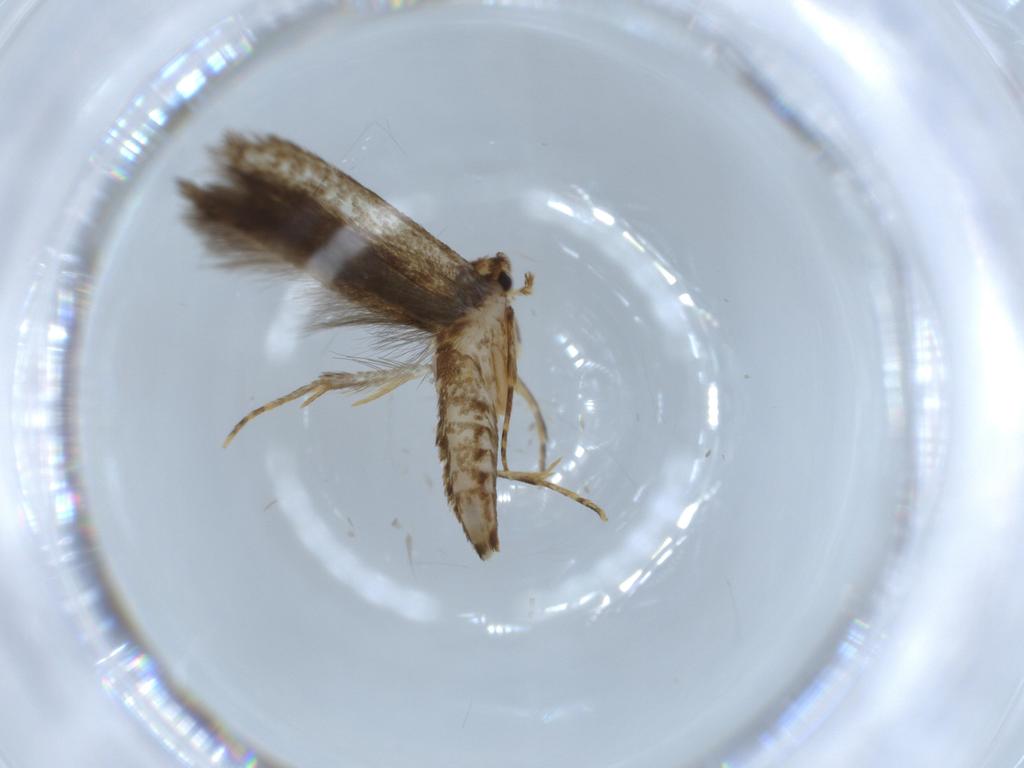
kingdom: Animalia
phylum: Arthropoda
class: Insecta
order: Lepidoptera
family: Tineidae
